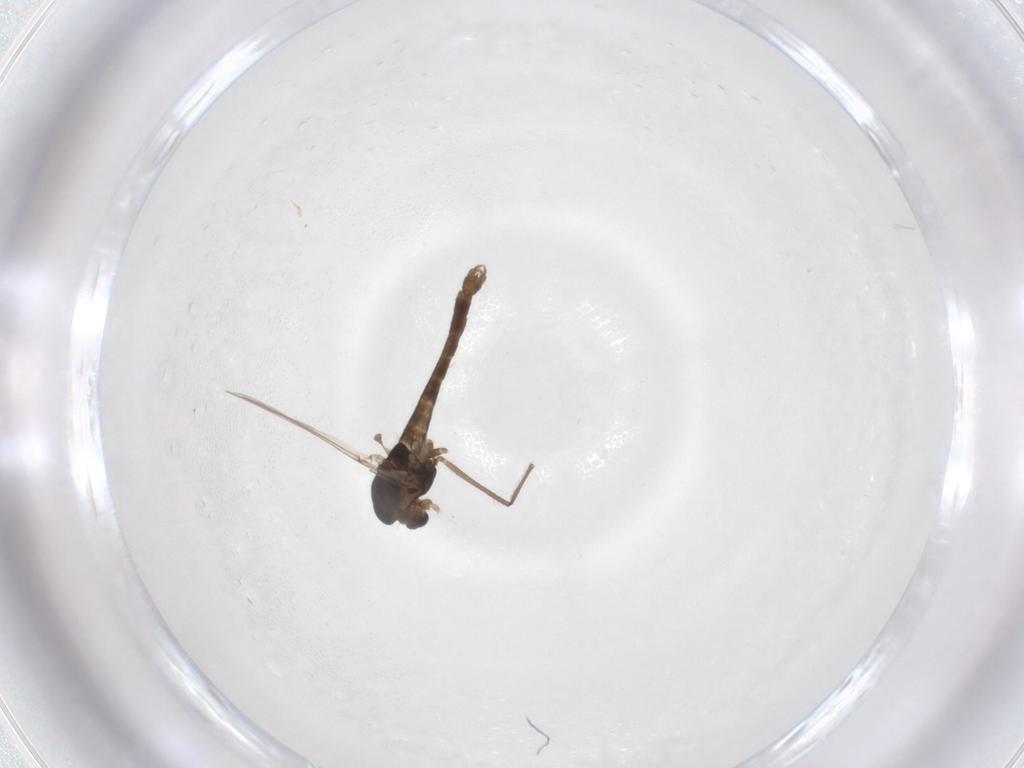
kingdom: Animalia
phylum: Arthropoda
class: Insecta
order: Diptera
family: Chironomidae
